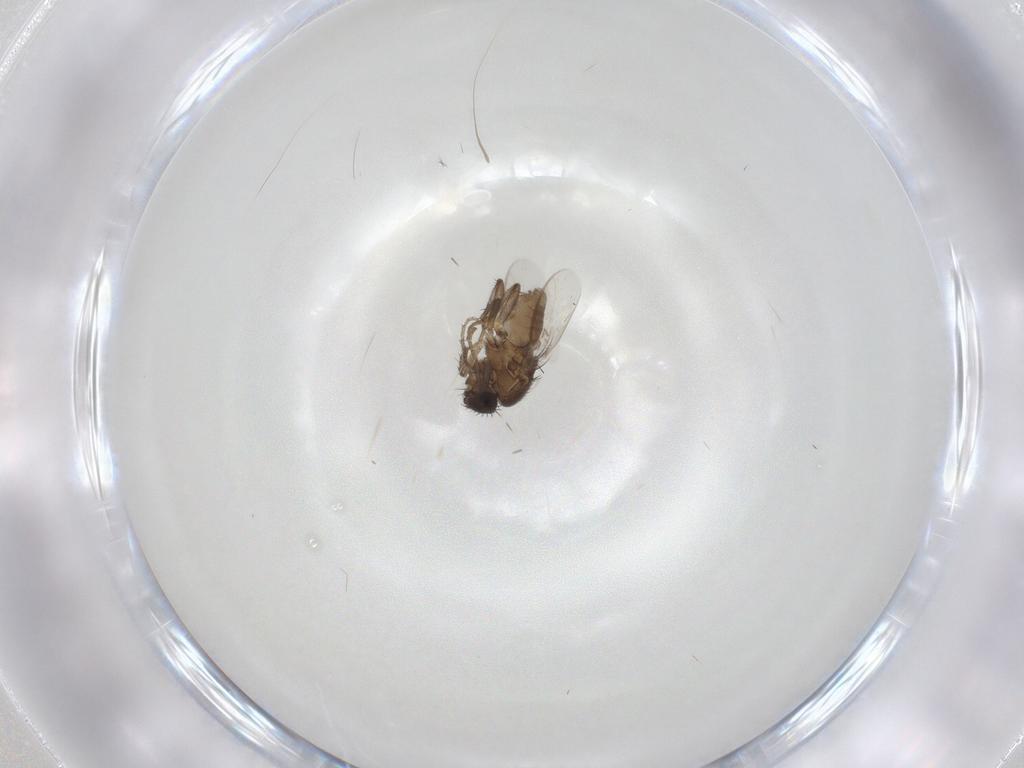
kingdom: Animalia
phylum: Arthropoda
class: Insecta
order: Diptera
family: Sphaeroceridae
